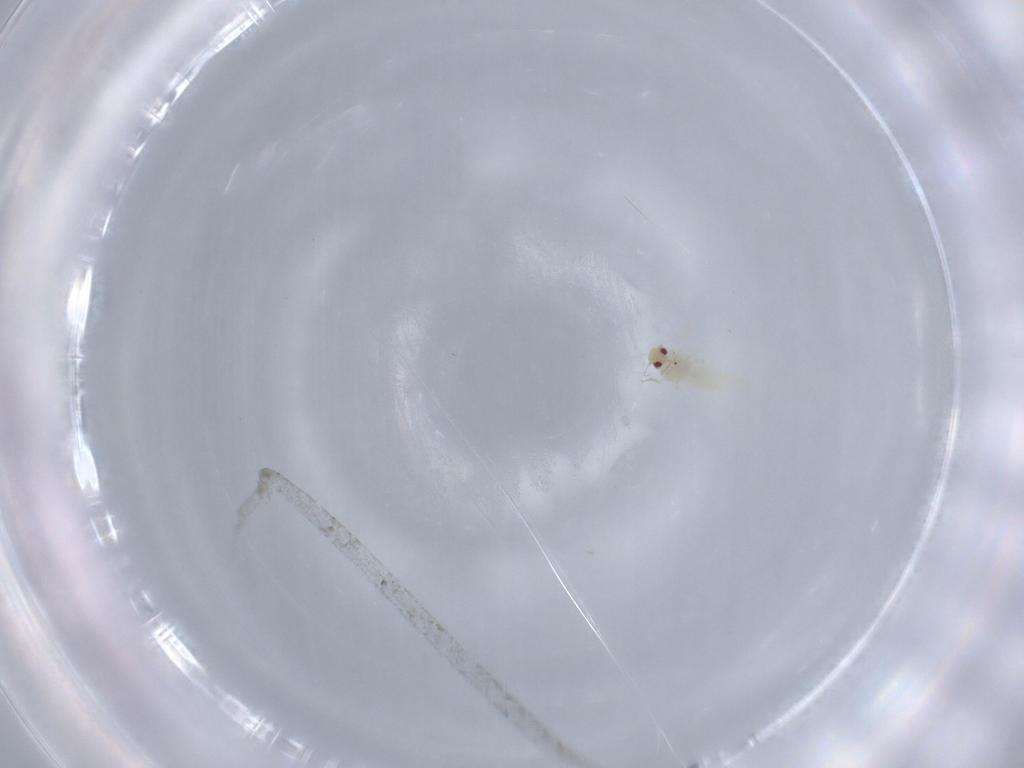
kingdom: Animalia
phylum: Arthropoda
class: Insecta
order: Hemiptera
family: Aleyrodidae
